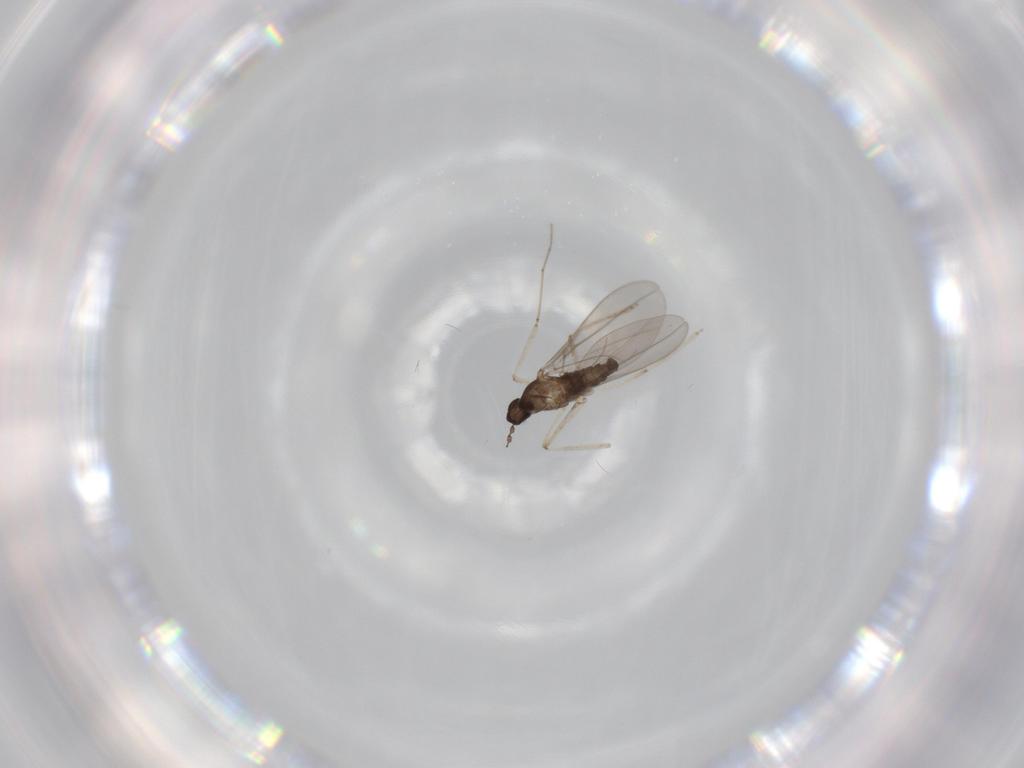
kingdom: Animalia
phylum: Arthropoda
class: Insecta
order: Diptera
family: Cecidomyiidae
